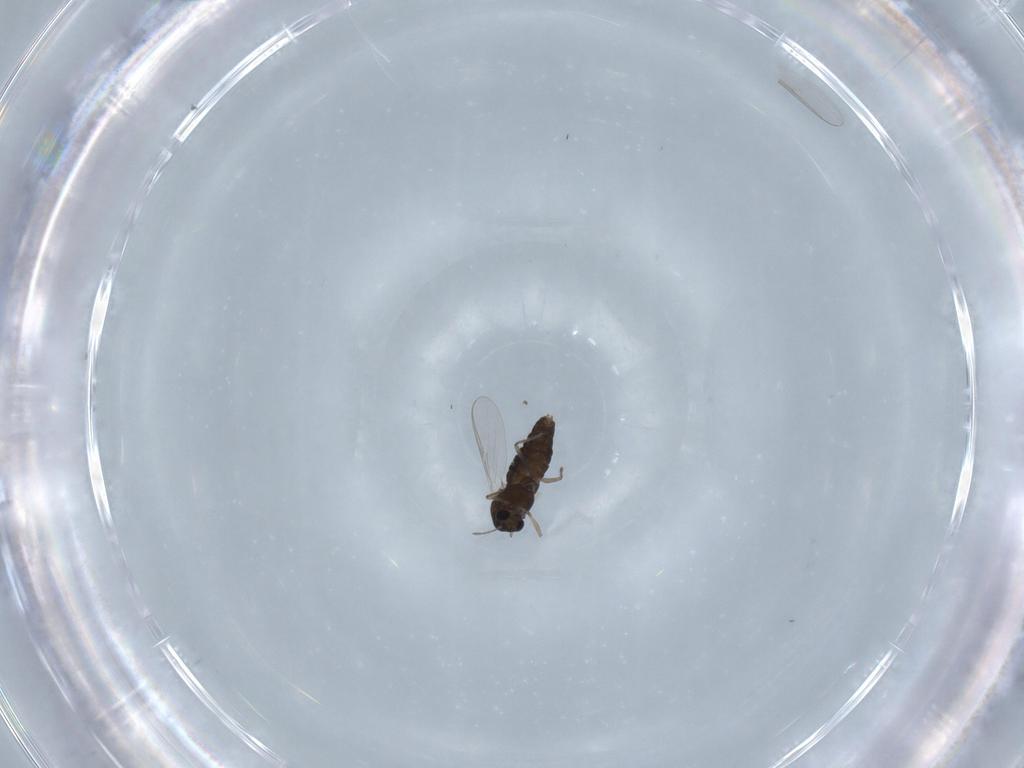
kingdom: Animalia
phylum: Arthropoda
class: Insecta
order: Diptera
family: Chironomidae
